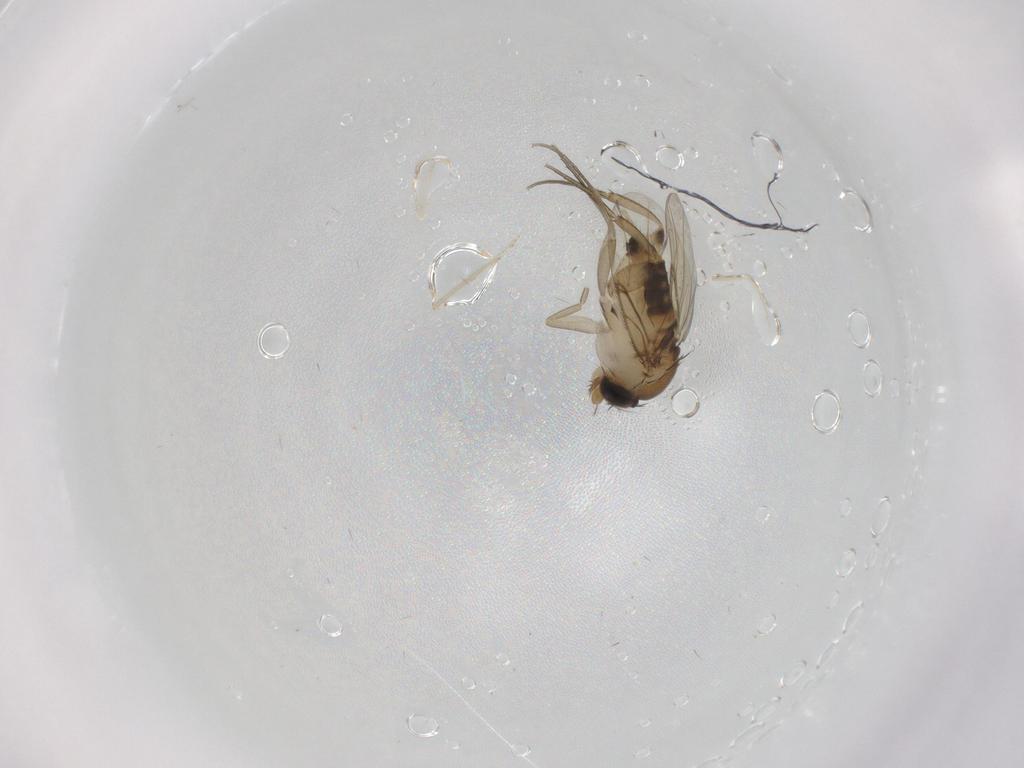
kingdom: Animalia
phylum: Arthropoda
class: Insecta
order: Diptera
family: Phoridae
